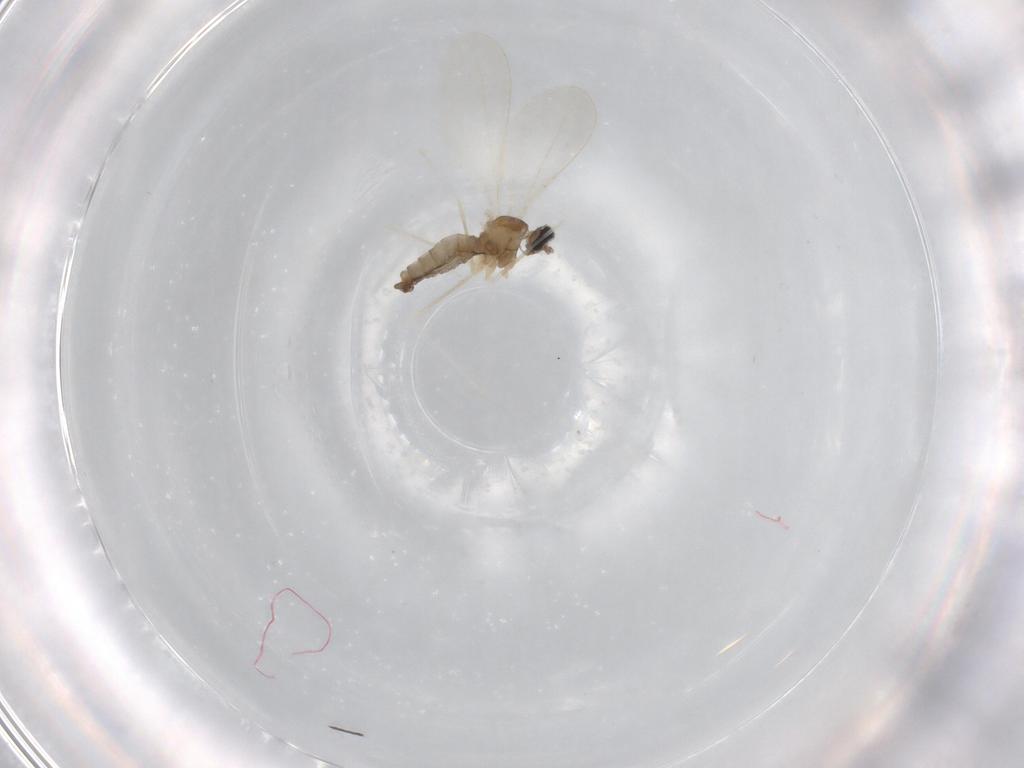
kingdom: Animalia
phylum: Arthropoda
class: Insecta
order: Diptera
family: Cecidomyiidae
